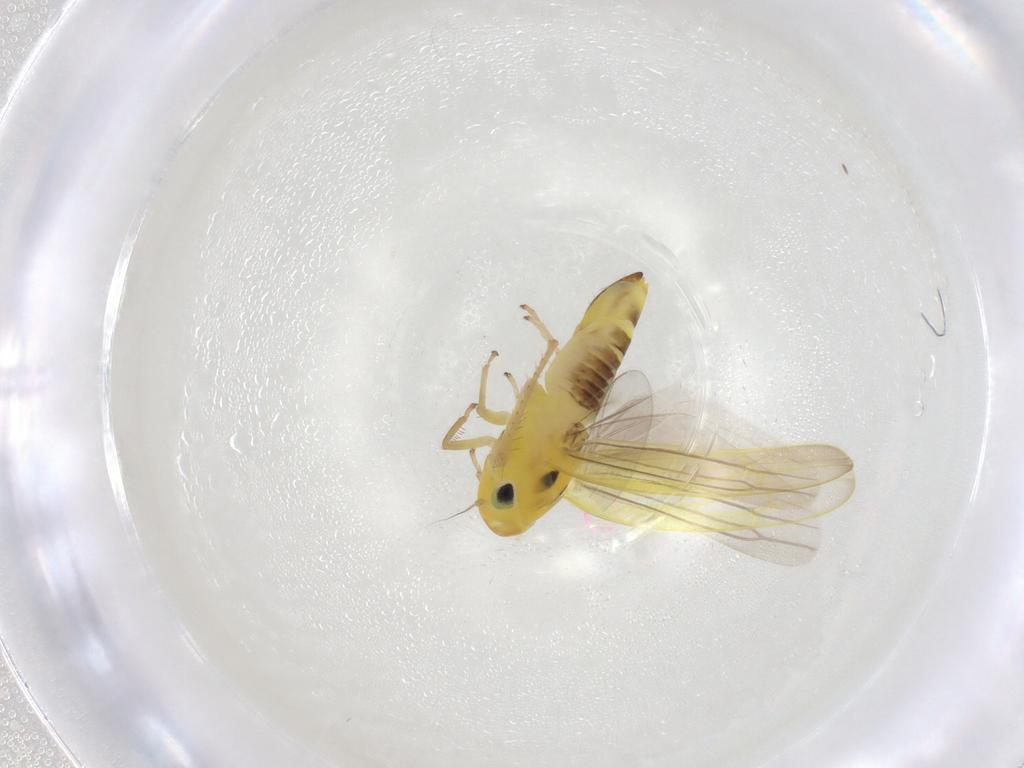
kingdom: Animalia
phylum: Arthropoda
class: Insecta
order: Hemiptera
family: Cicadellidae
